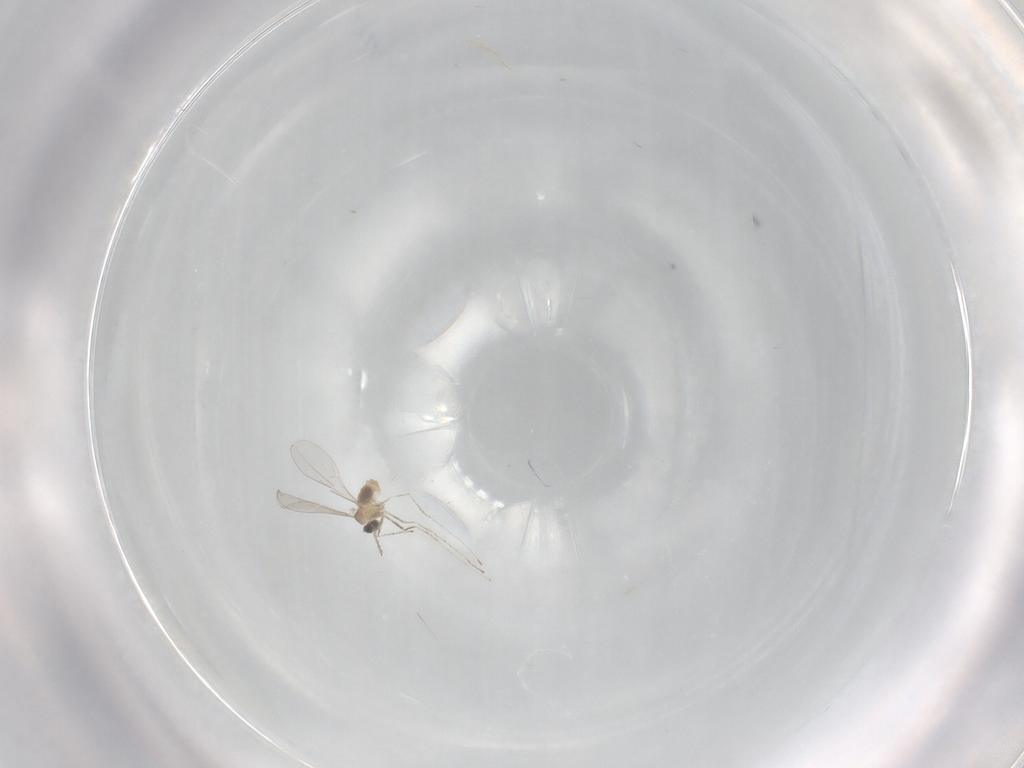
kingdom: Animalia
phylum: Arthropoda
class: Insecta
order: Diptera
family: Cecidomyiidae
